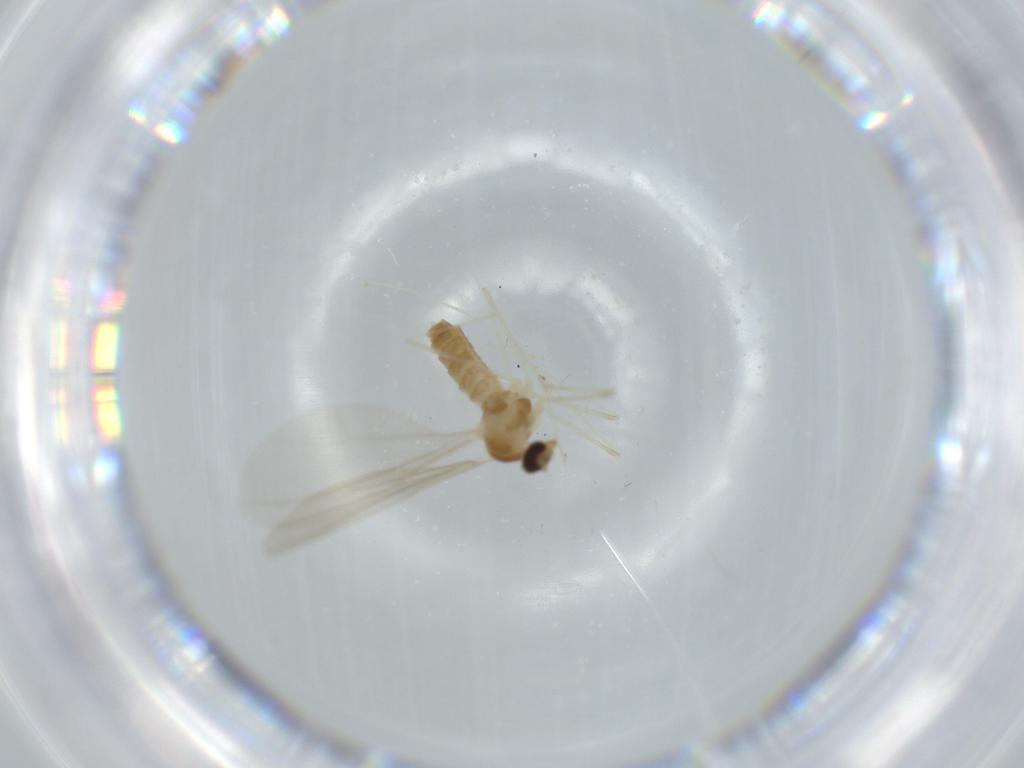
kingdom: Animalia
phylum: Arthropoda
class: Insecta
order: Diptera
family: Cecidomyiidae
